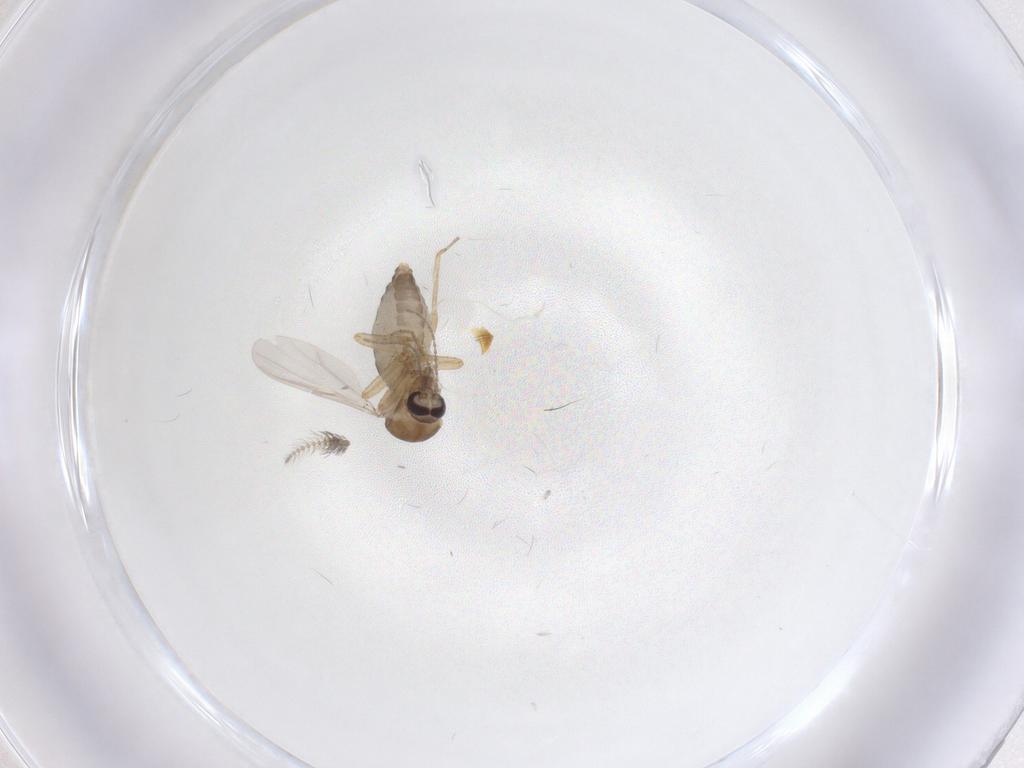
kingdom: Animalia
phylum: Arthropoda
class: Insecta
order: Diptera
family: Ceratopogonidae
